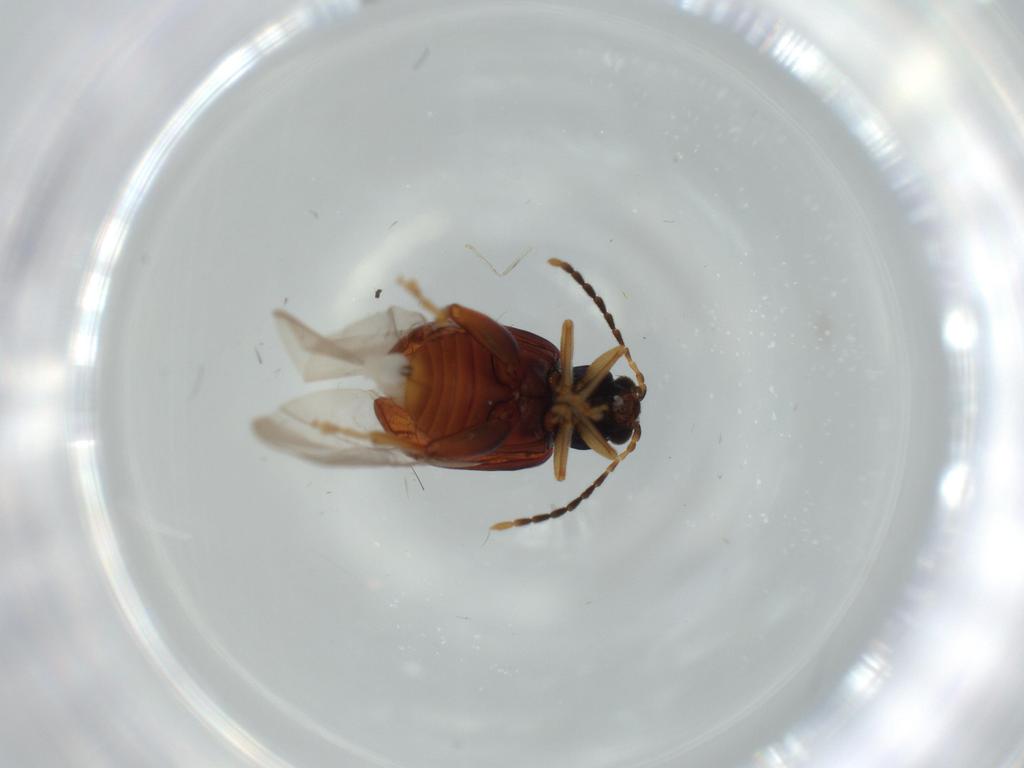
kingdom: Animalia
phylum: Arthropoda
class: Insecta
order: Coleoptera
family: Chrysomelidae
